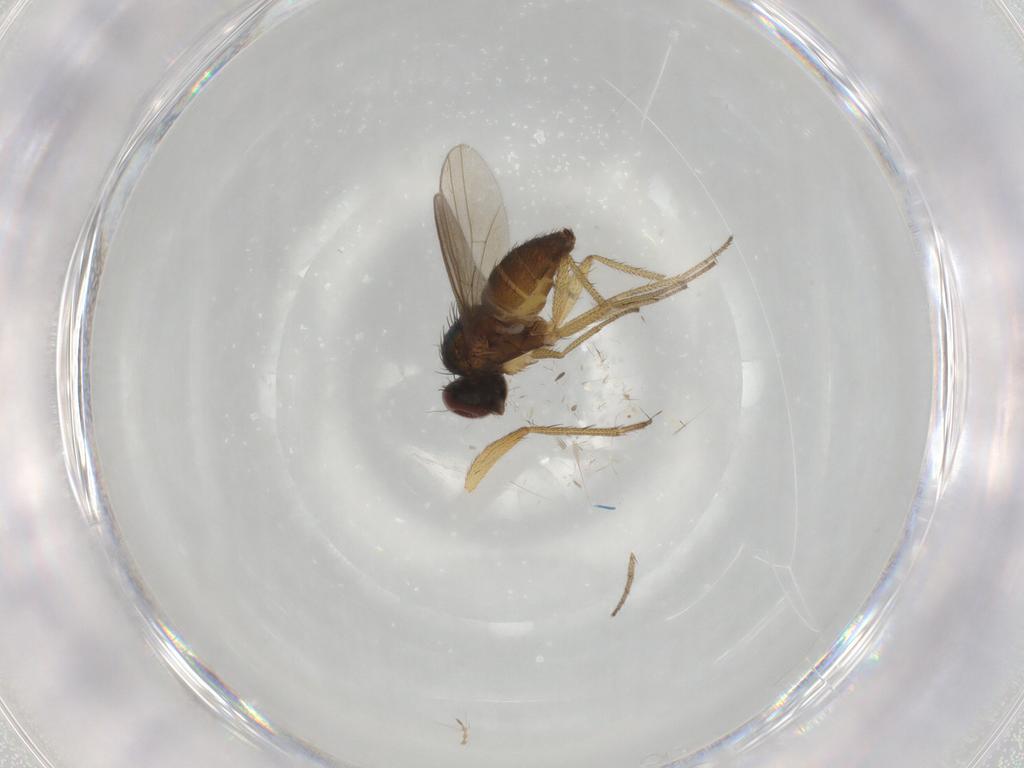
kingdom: Animalia
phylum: Arthropoda
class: Insecta
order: Diptera
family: Dolichopodidae
